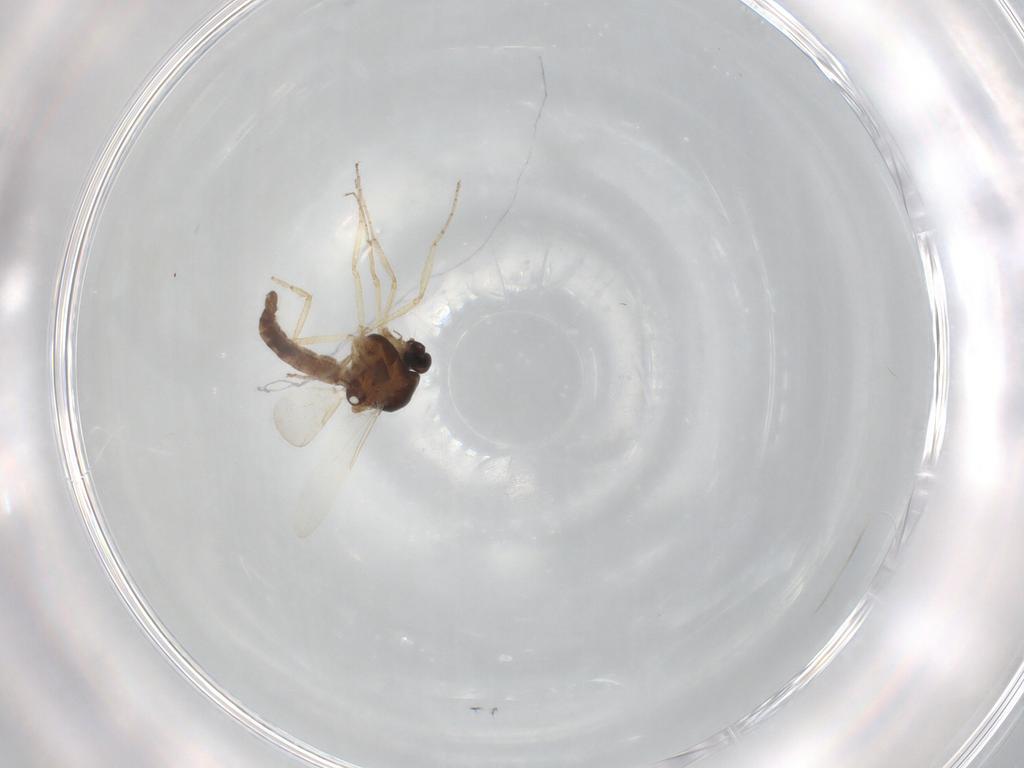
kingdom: Animalia
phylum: Arthropoda
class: Insecta
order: Diptera
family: Ceratopogonidae
